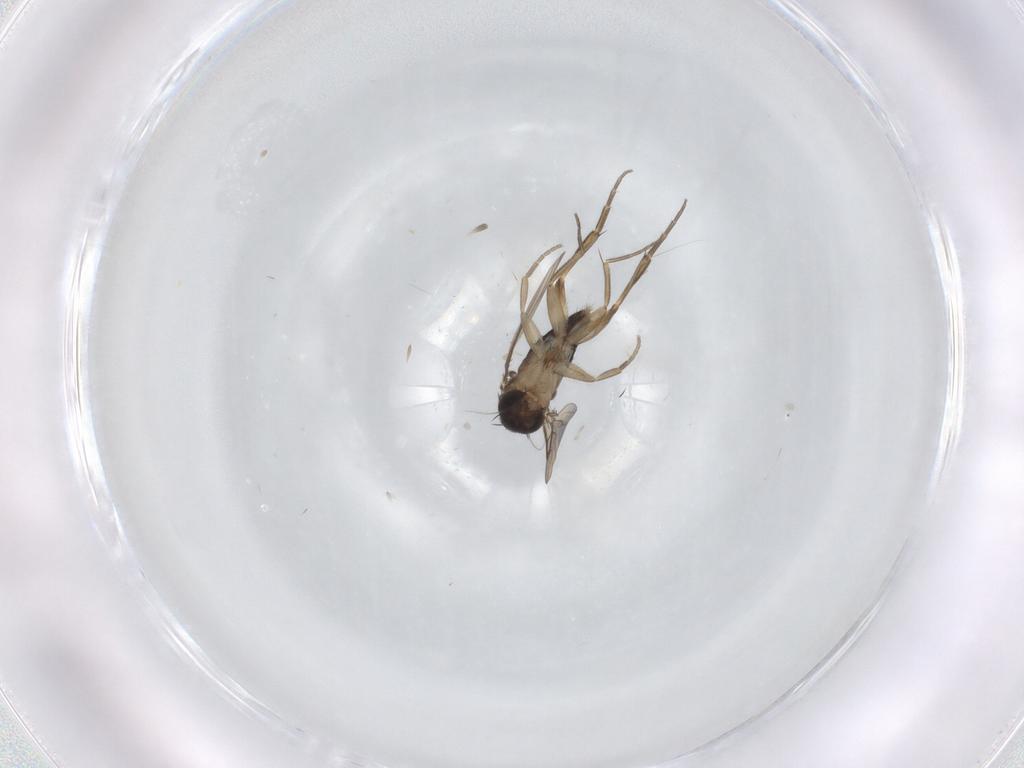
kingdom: Animalia
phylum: Arthropoda
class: Insecta
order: Diptera
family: Phoridae
